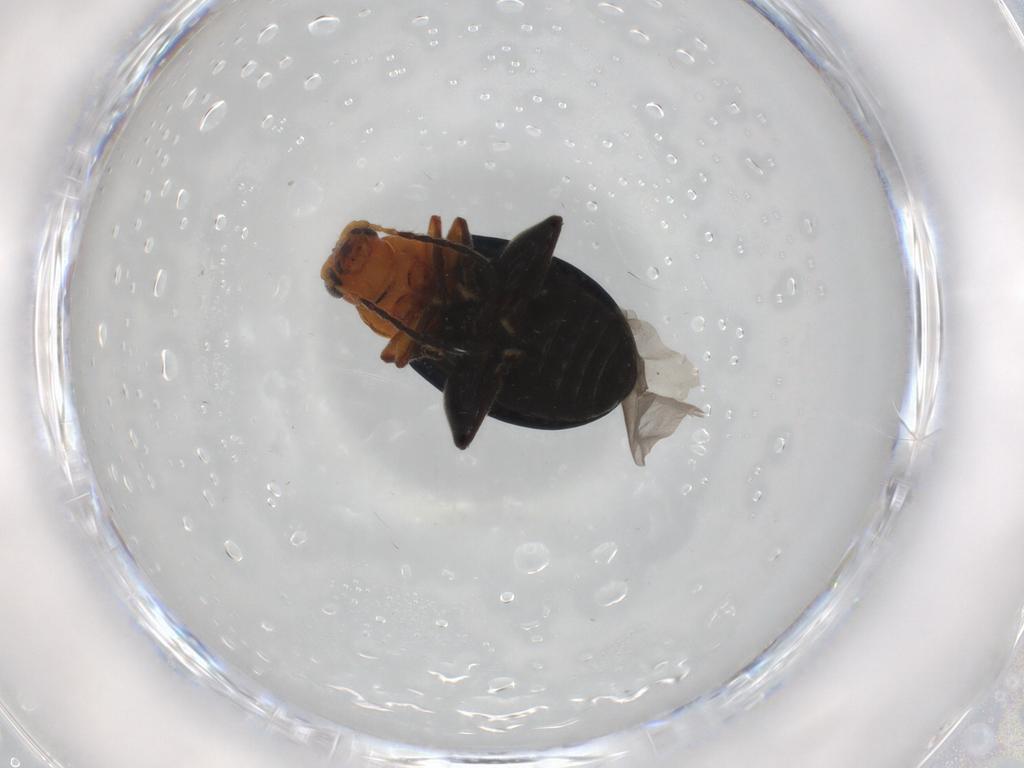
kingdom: Animalia
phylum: Arthropoda
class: Insecta
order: Coleoptera
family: Chrysomelidae
